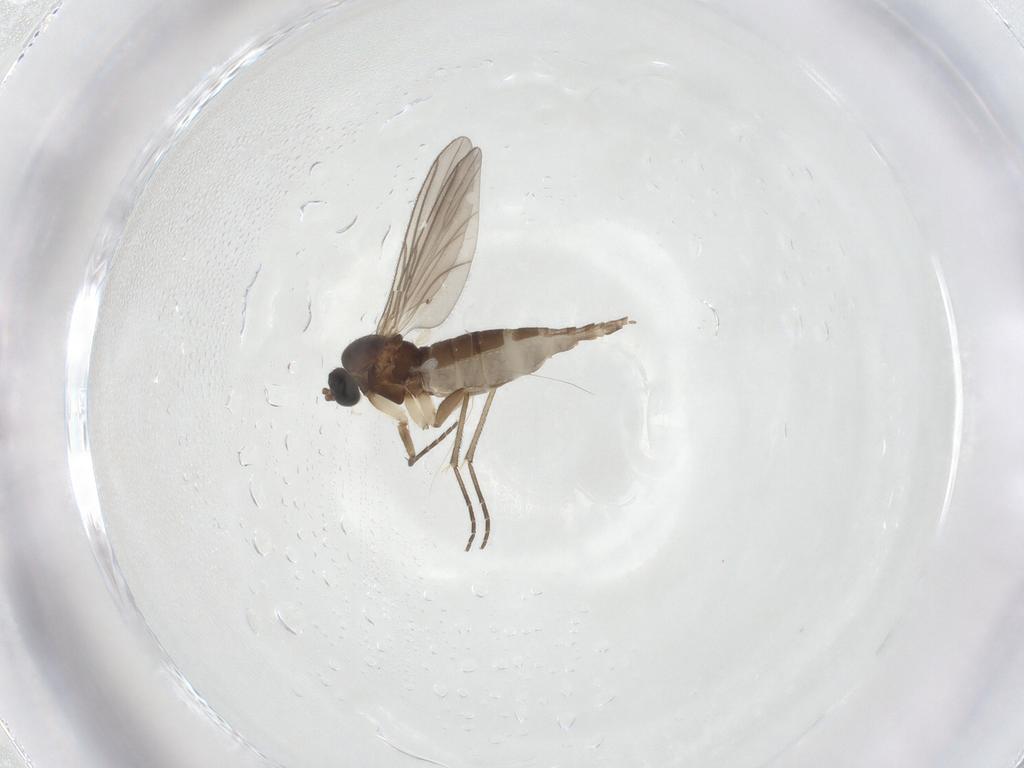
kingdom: Animalia
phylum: Arthropoda
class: Insecta
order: Diptera
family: Sciaridae
